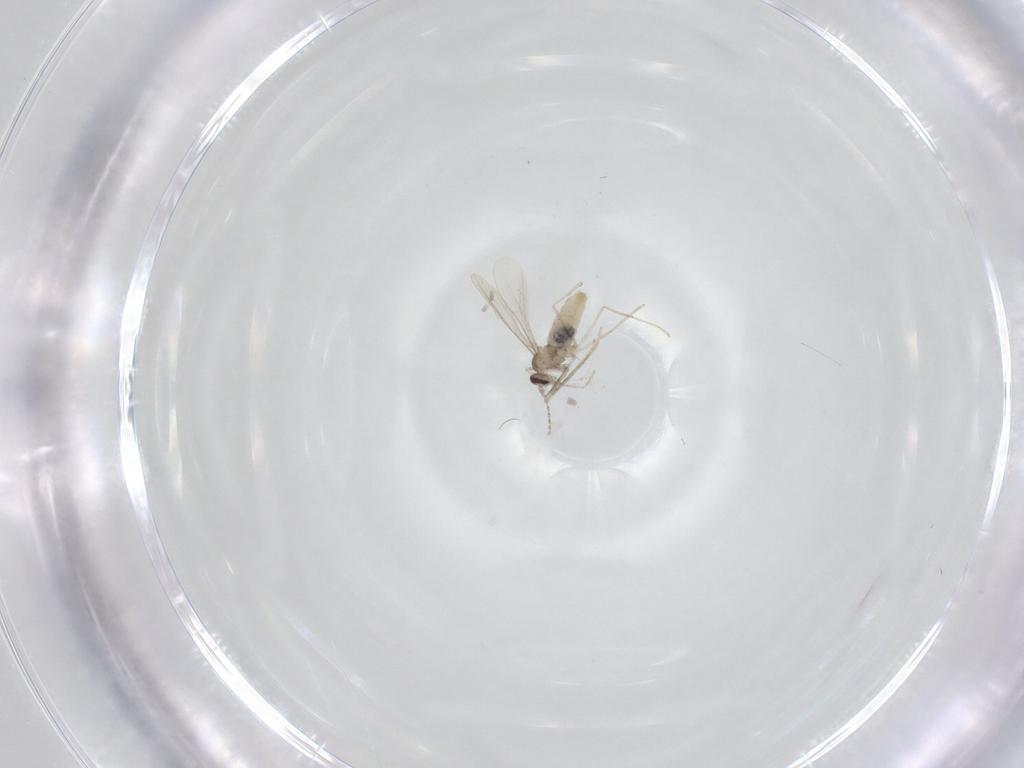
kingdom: Animalia
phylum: Arthropoda
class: Insecta
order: Diptera
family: Cecidomyiidae
